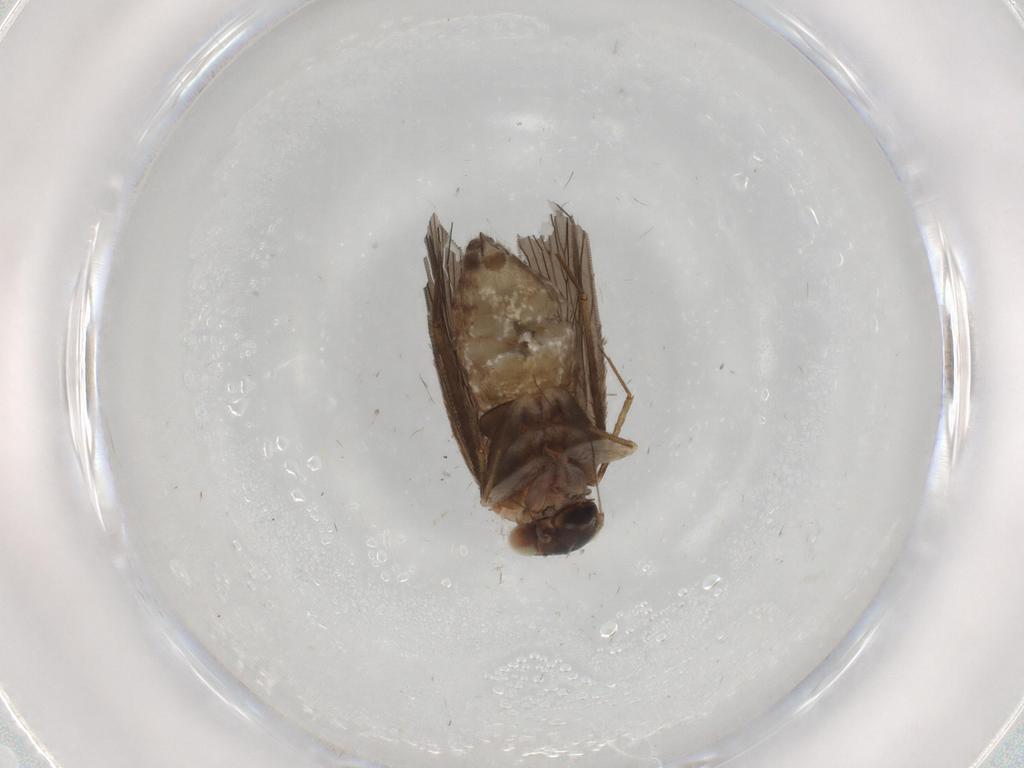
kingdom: Animalia
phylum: Arthropoda
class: Insecta
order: Psocodea
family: Lepidopsocidae
